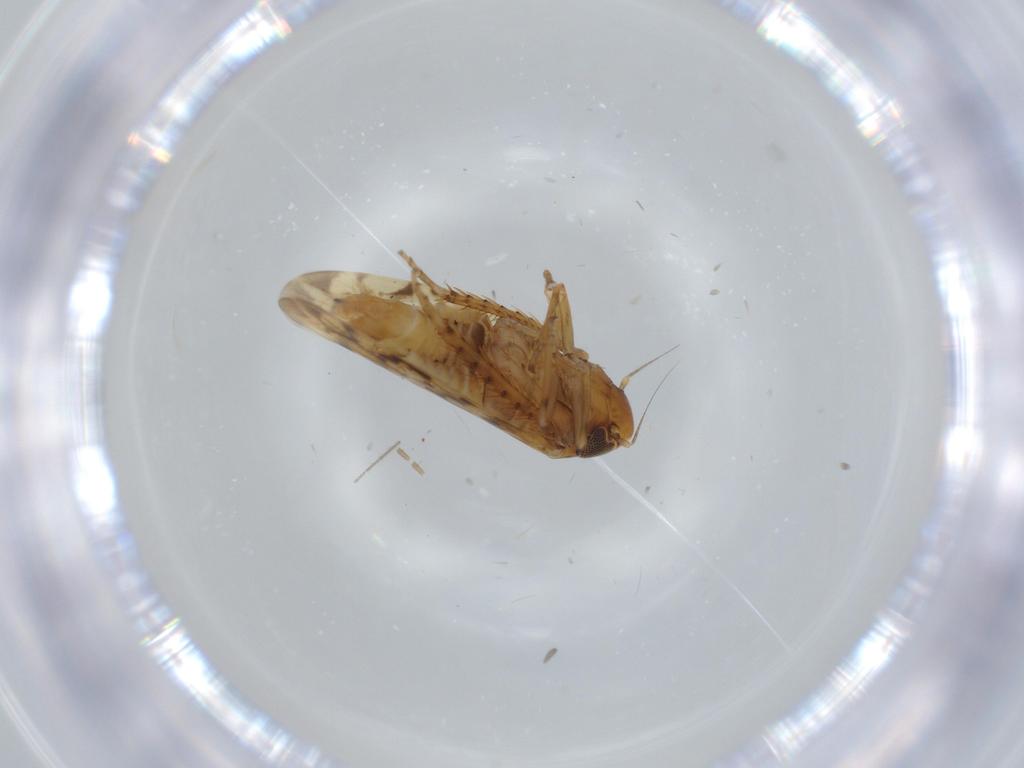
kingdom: Animalia
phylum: Arthropoda
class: Insecta
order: Hemiptera
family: Cicadellidae
